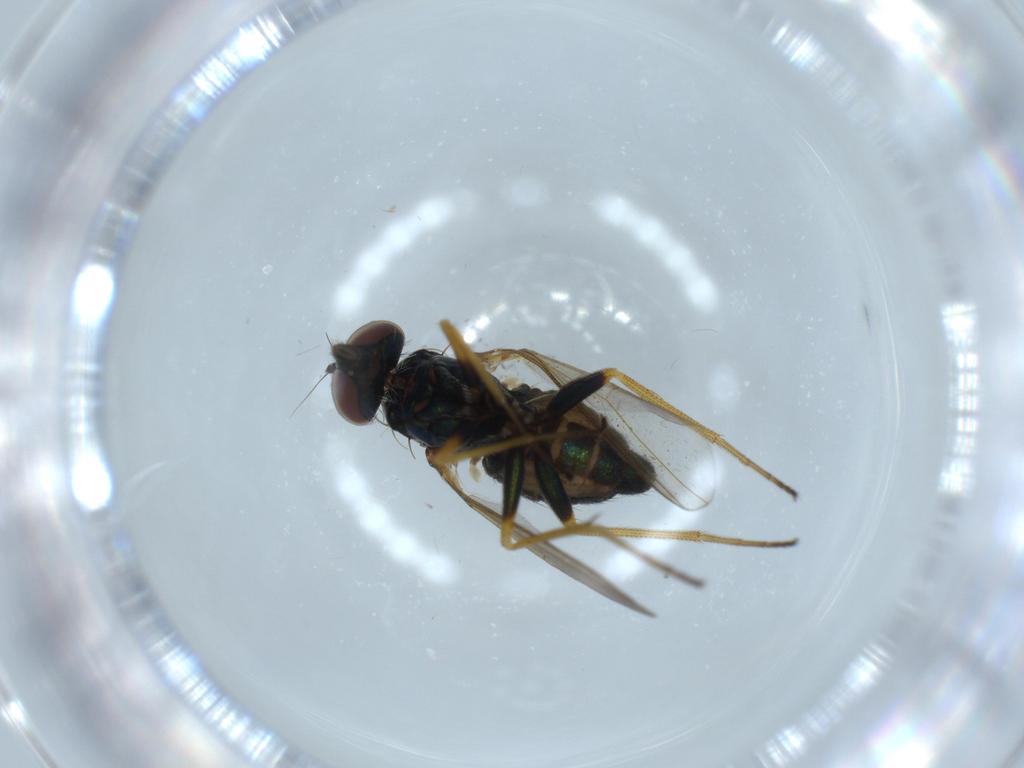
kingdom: Animalia
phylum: Arthropoda
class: Insecta
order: Diptera
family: Dolichopodidae
